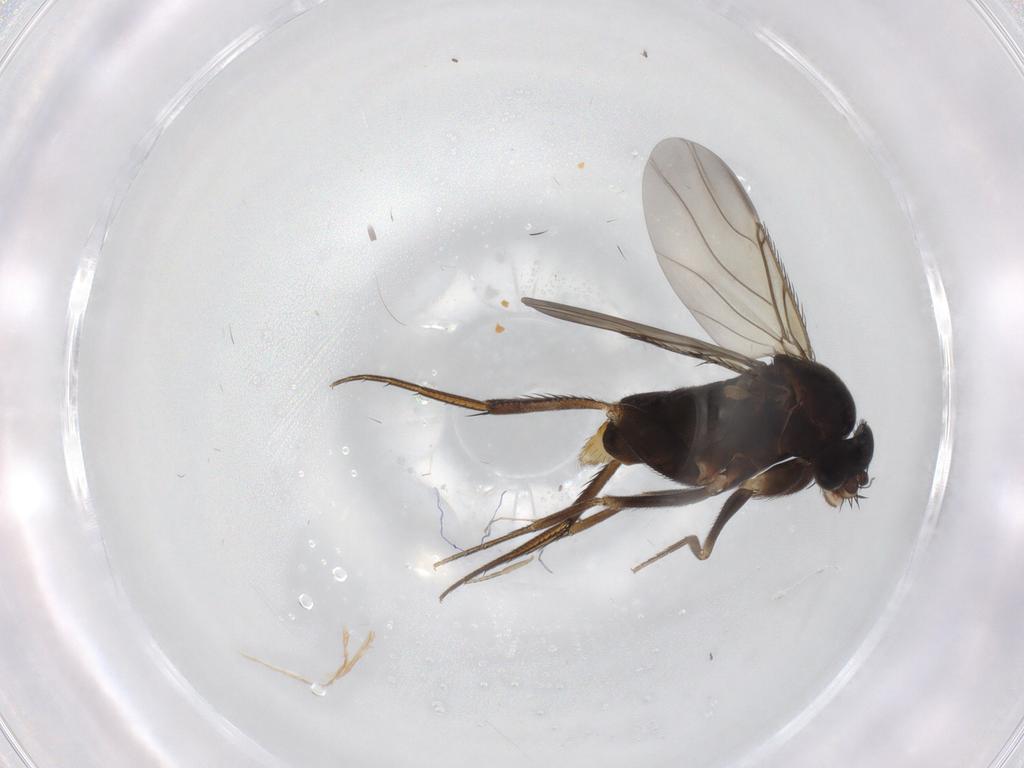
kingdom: Animalia
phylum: Arthropoda
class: Insecta
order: Diptera
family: Phoridae
